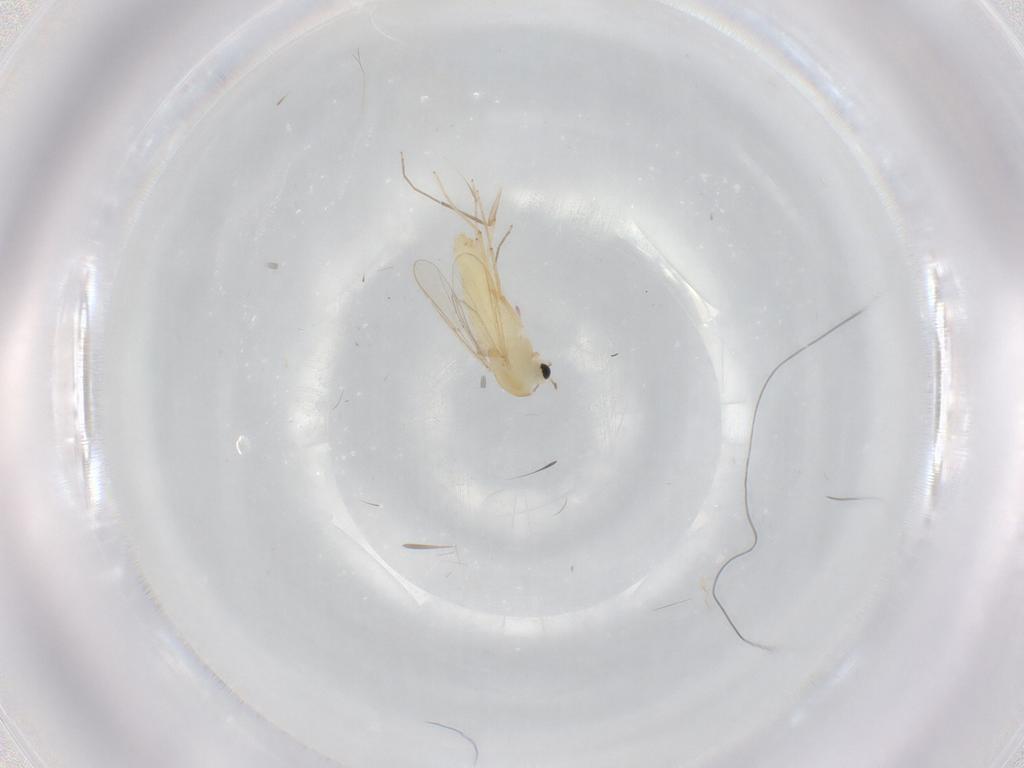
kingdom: Animalia
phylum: Arthropoda
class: Insecta
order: Diptera
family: Chironomidae
